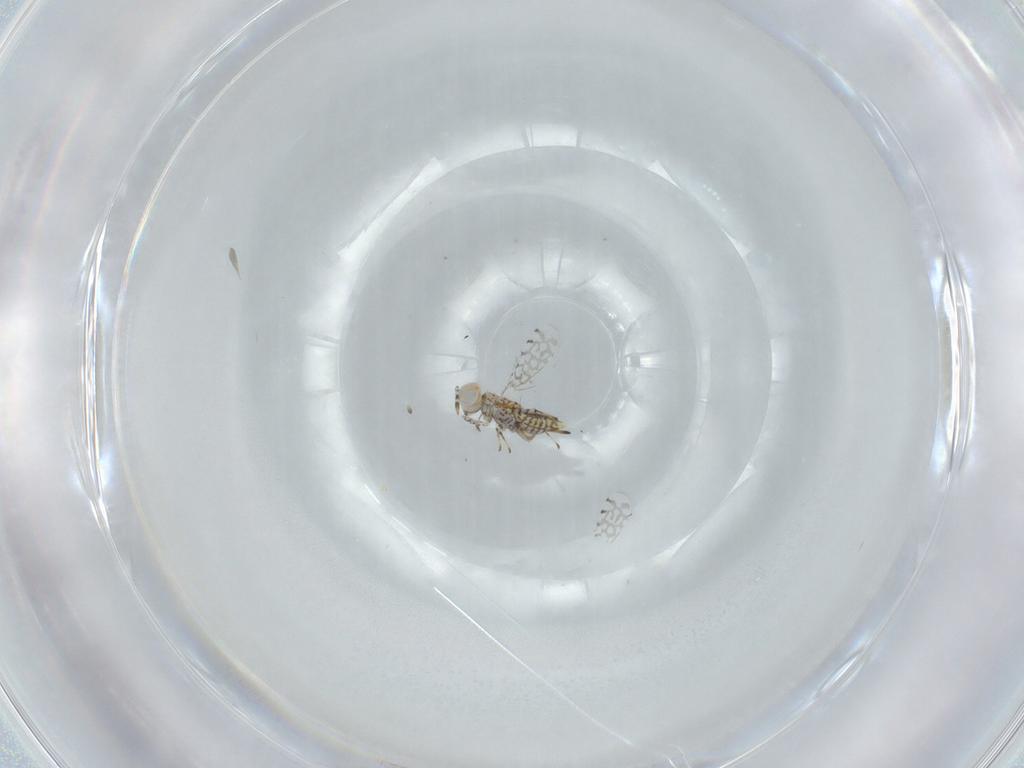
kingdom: Animalia
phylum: Arthropoda
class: Insecta
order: Hymenoptera
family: Aphelinidae
